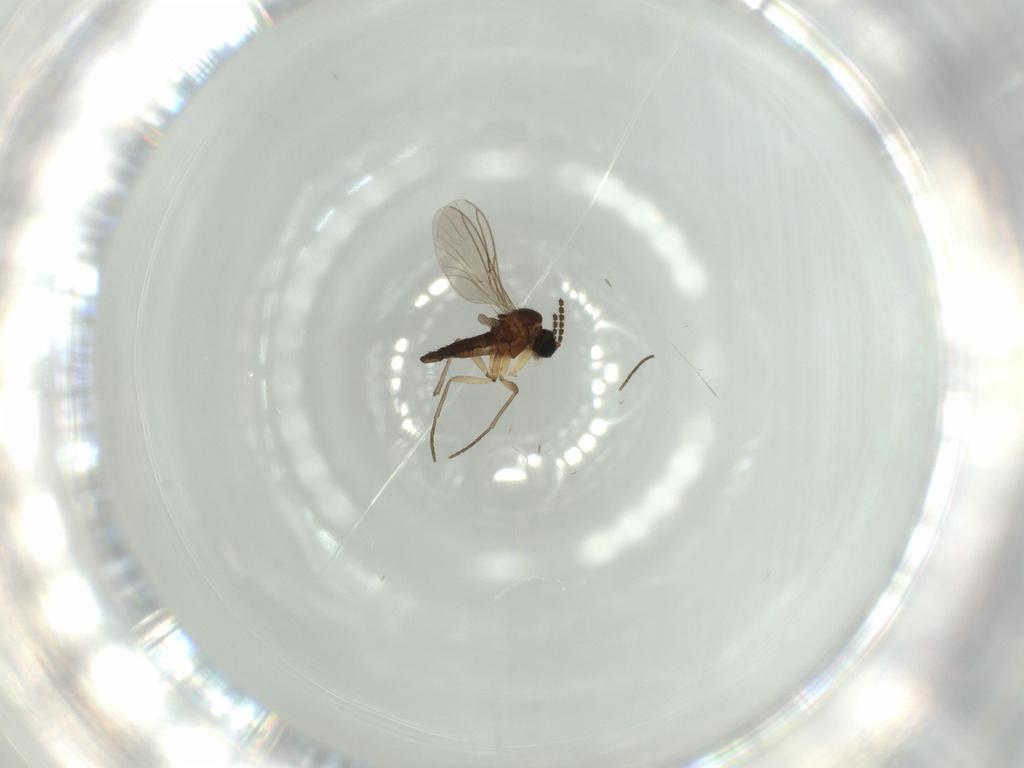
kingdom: Animalia
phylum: Arthropoda
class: Insecta
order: Diptera
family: Sciaridae
